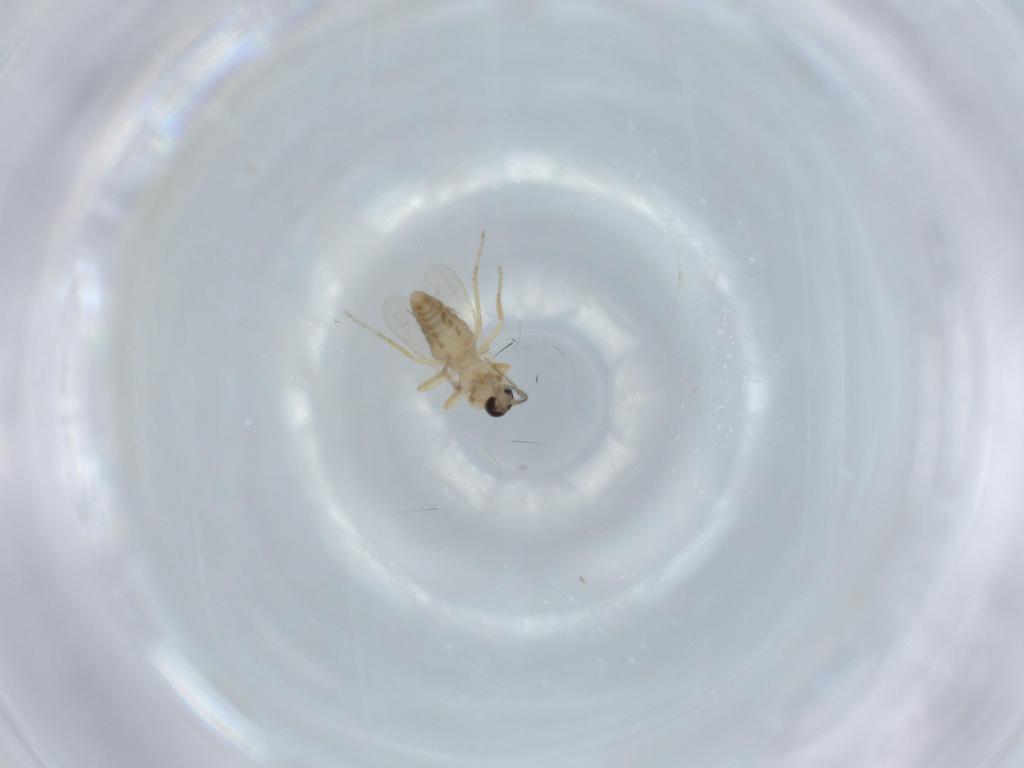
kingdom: Animalia
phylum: Arthropoda
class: Insecta
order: Diptera
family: Ceratopogonidae
